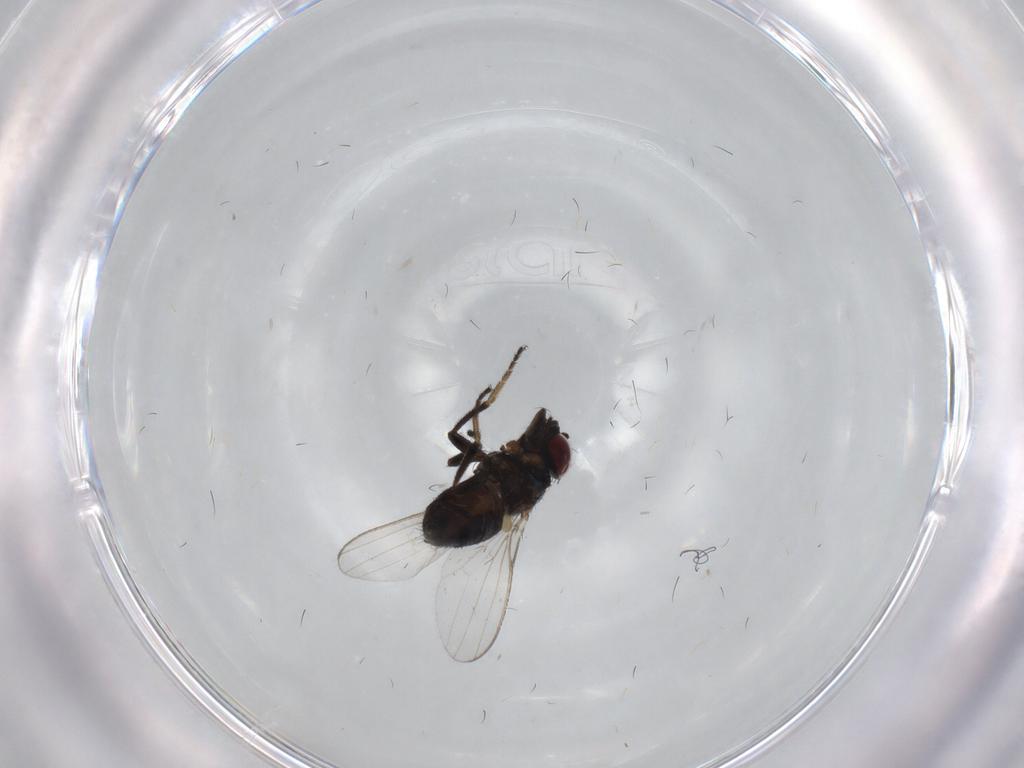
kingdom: Animalia
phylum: Arthropoda
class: Insecta
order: Diptera
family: Milichiidae
